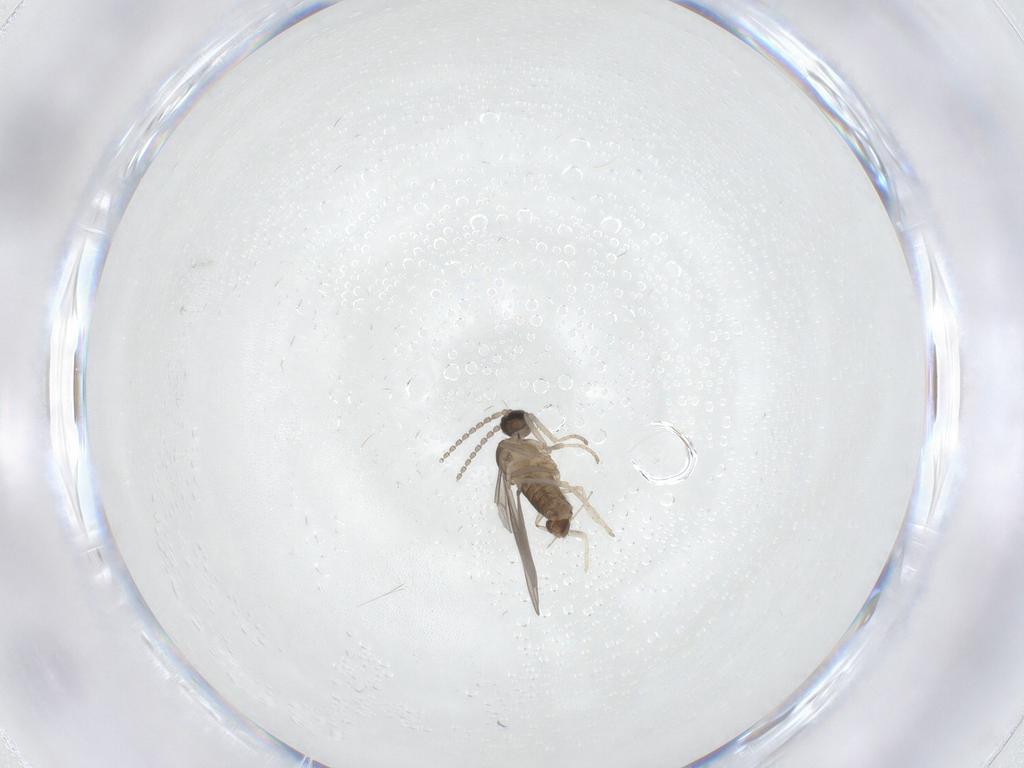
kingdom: Animalia
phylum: Arthropoda
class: Insecta
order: Diptera
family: Cecidomyiidae
